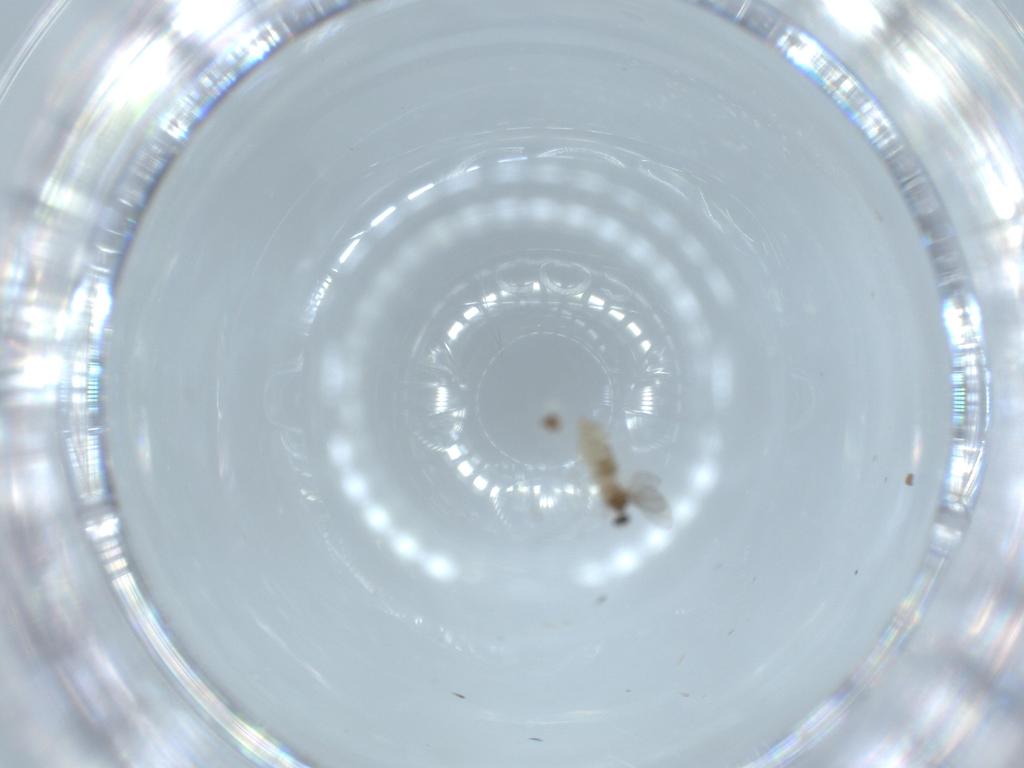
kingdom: Animalia
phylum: Arthropoda
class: Insecta
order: Diptera
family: Cecidomyiidae
